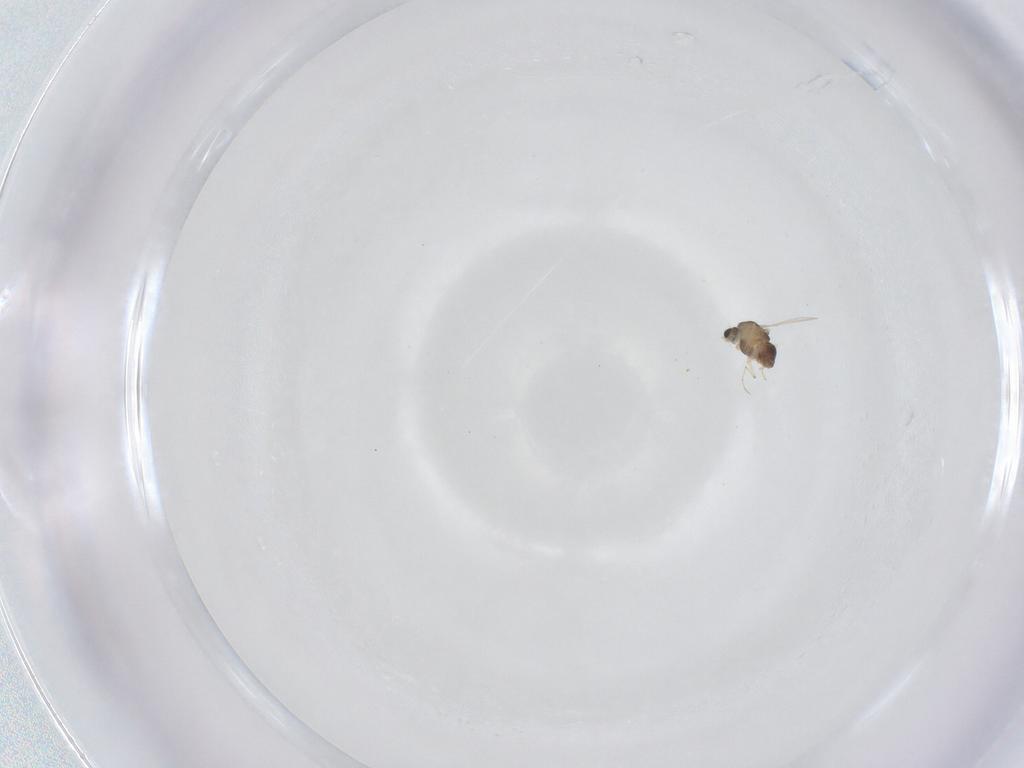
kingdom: Animalia
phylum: Arthropoda
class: Insecta
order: Diptera
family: Chironomidae
